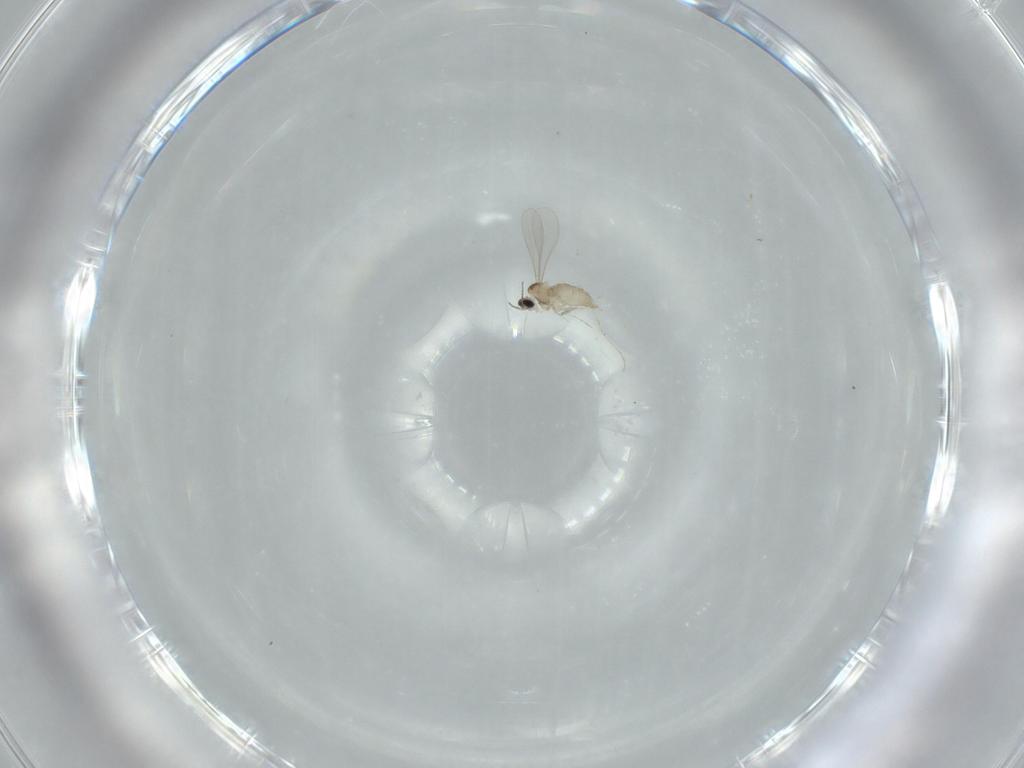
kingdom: Animalia
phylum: Arthropoda
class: Insecta
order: Diptera
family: Sciaridae
